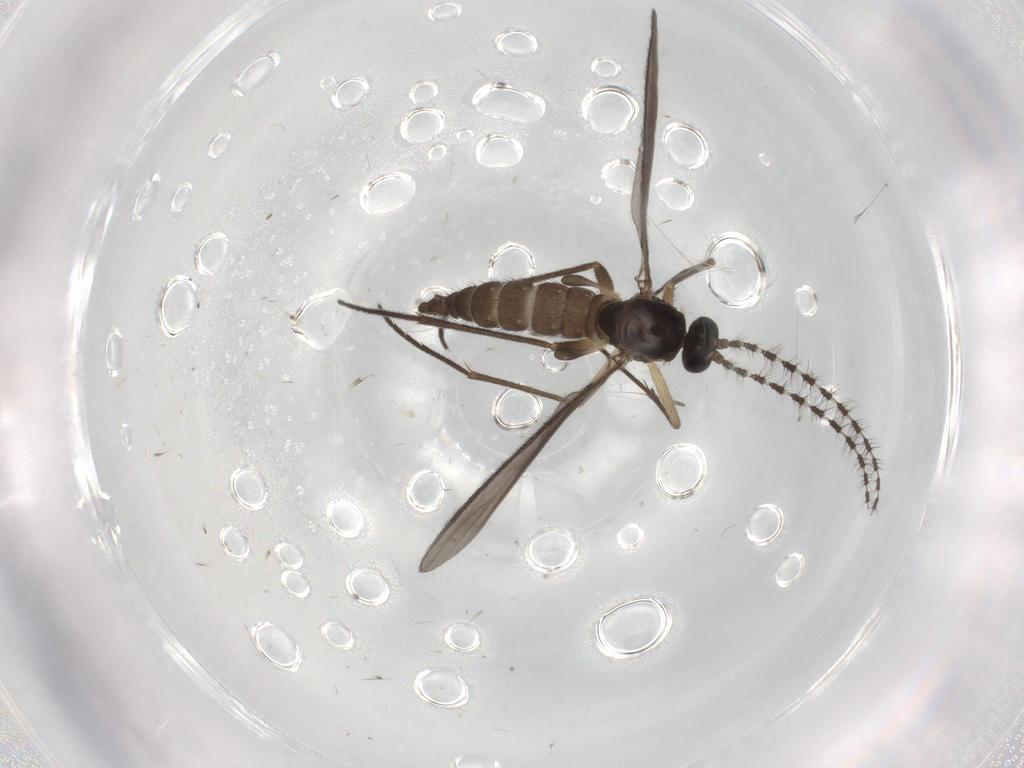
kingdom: Animalia
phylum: Arthropoda
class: Insecta
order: Diptera
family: Sciaridae
